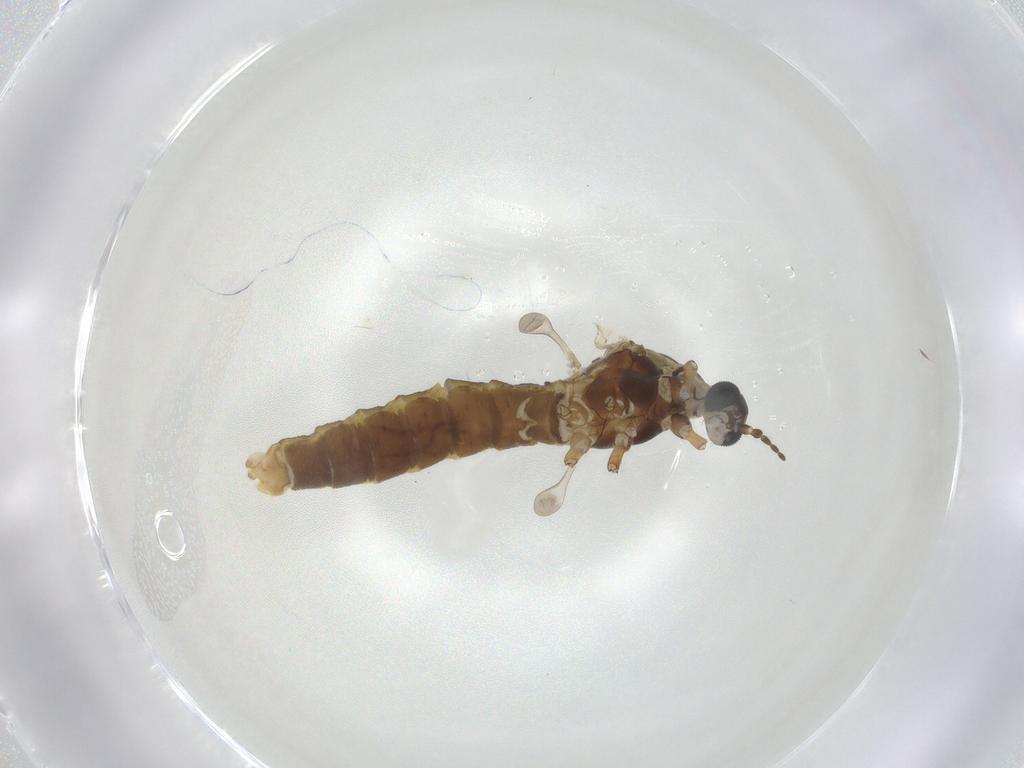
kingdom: Animalia
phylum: Arthropoda
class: Insecta
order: Diptera
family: Limoniidae
